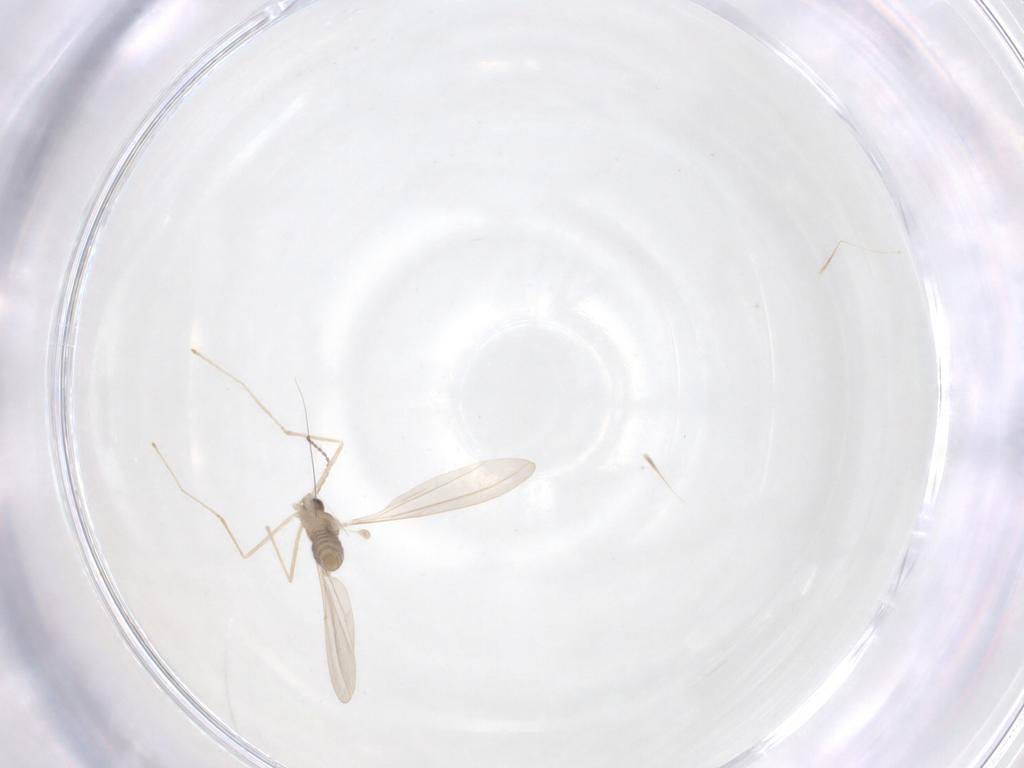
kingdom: Animalia
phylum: Arthropoda
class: Insecta
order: Diptera
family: Cecidomyiidae
